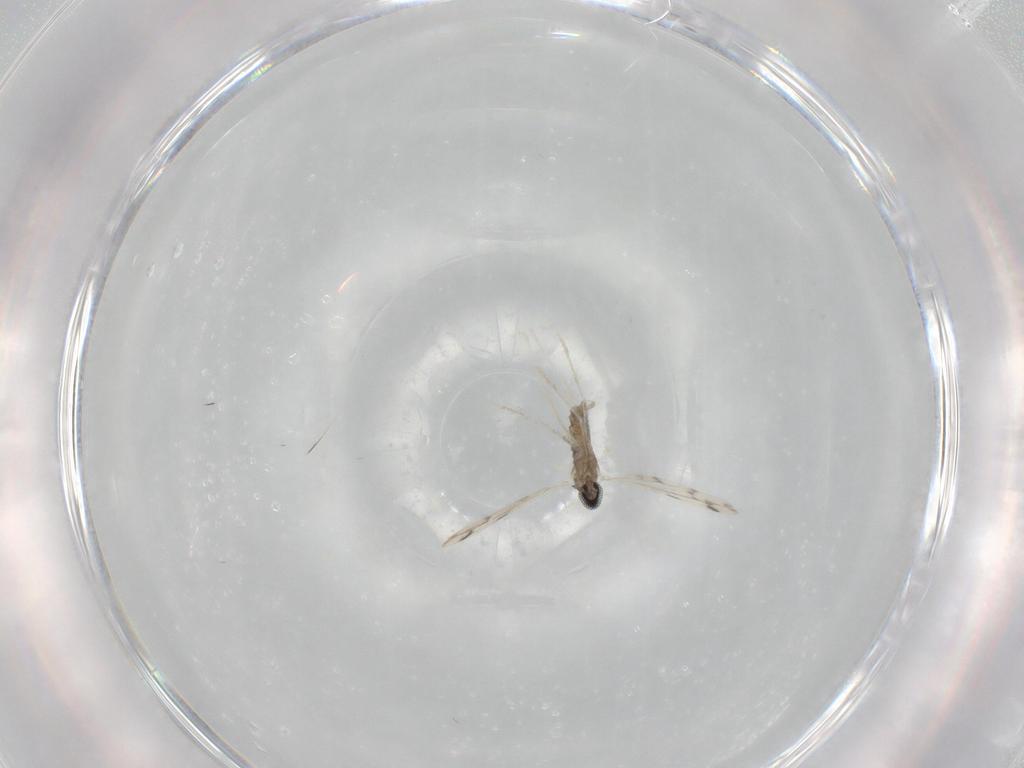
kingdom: Animalia
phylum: Arthropoda
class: Insecta
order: Diptera
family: Cecidomyiidae
